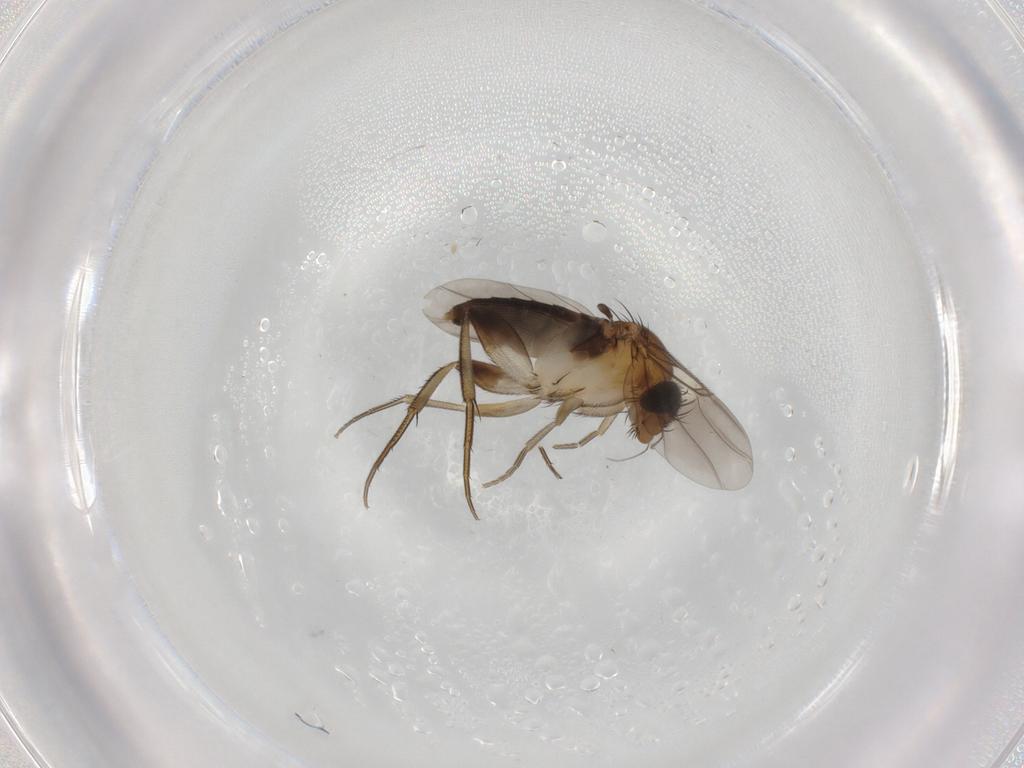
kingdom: Animalia
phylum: Arthropoda
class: Insecta
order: Diptera
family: Phoridae
